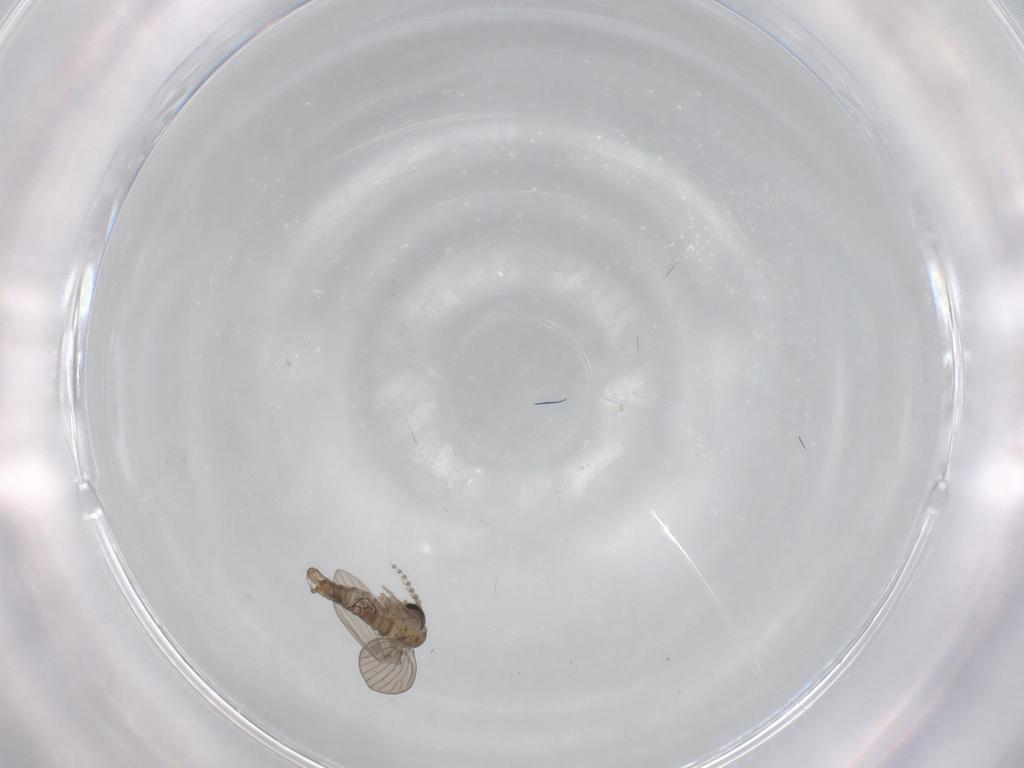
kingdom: Animalia
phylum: Arthropoda
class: Insecta
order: Diptera
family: Psychodidae
